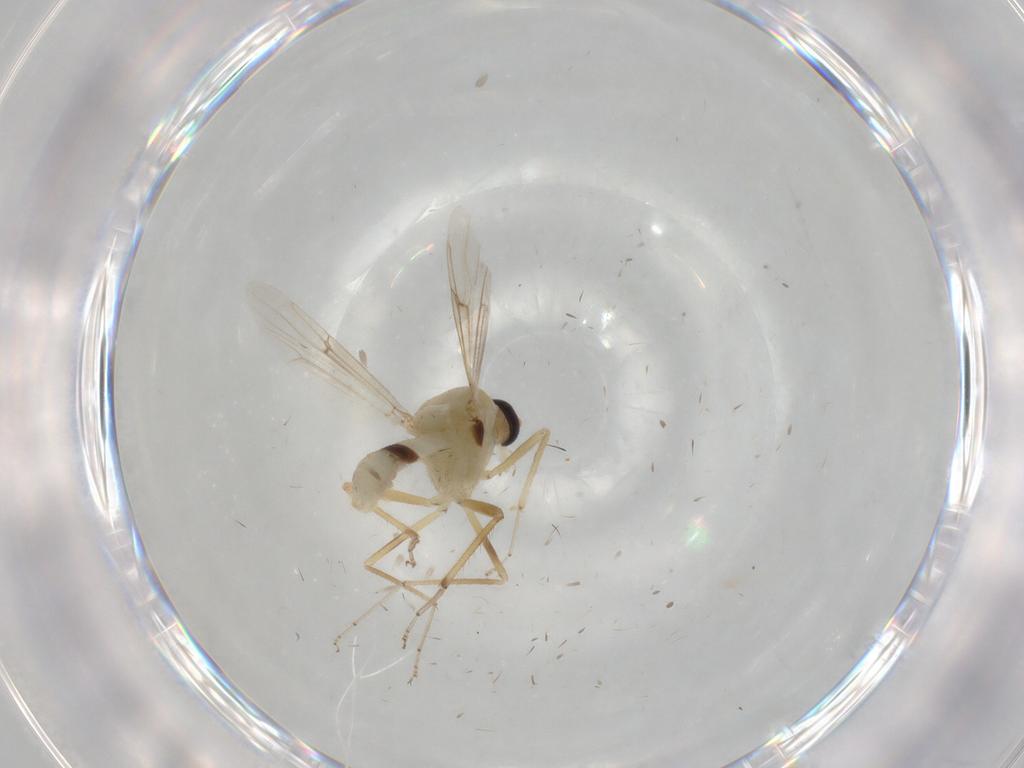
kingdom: Animalia
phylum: Arthropoda
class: Insecta
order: Diptera
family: Ceratopogonidae
